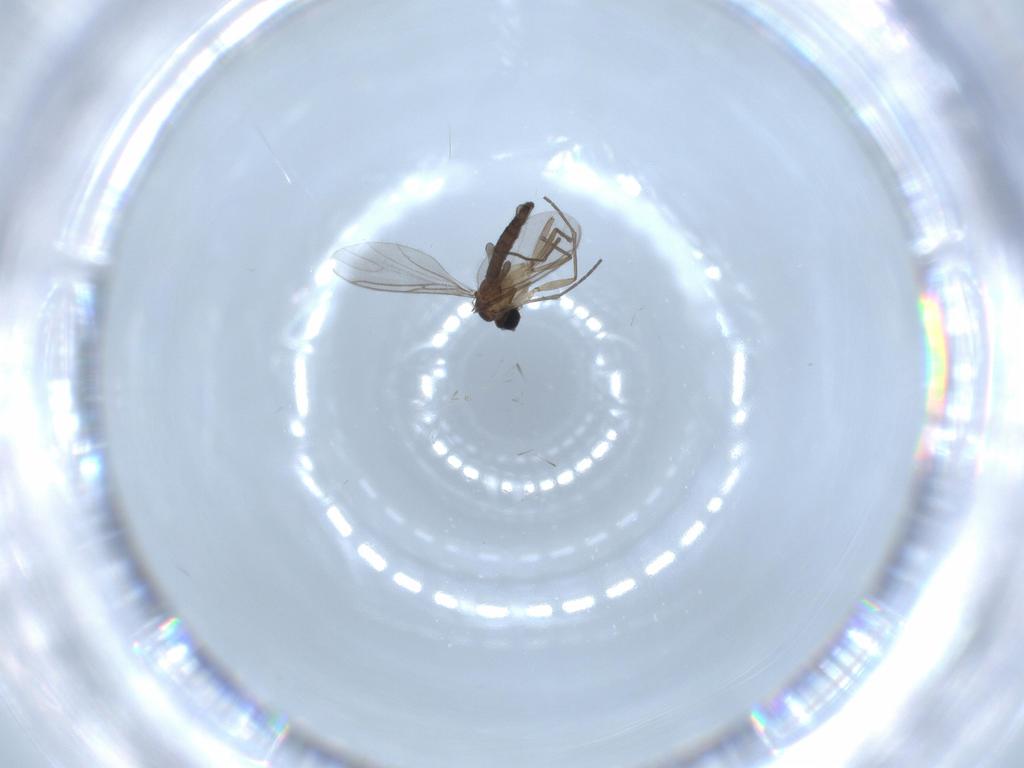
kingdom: Animalia
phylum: Arthropoda
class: Insecta
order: Diptera
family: Sciaridae
